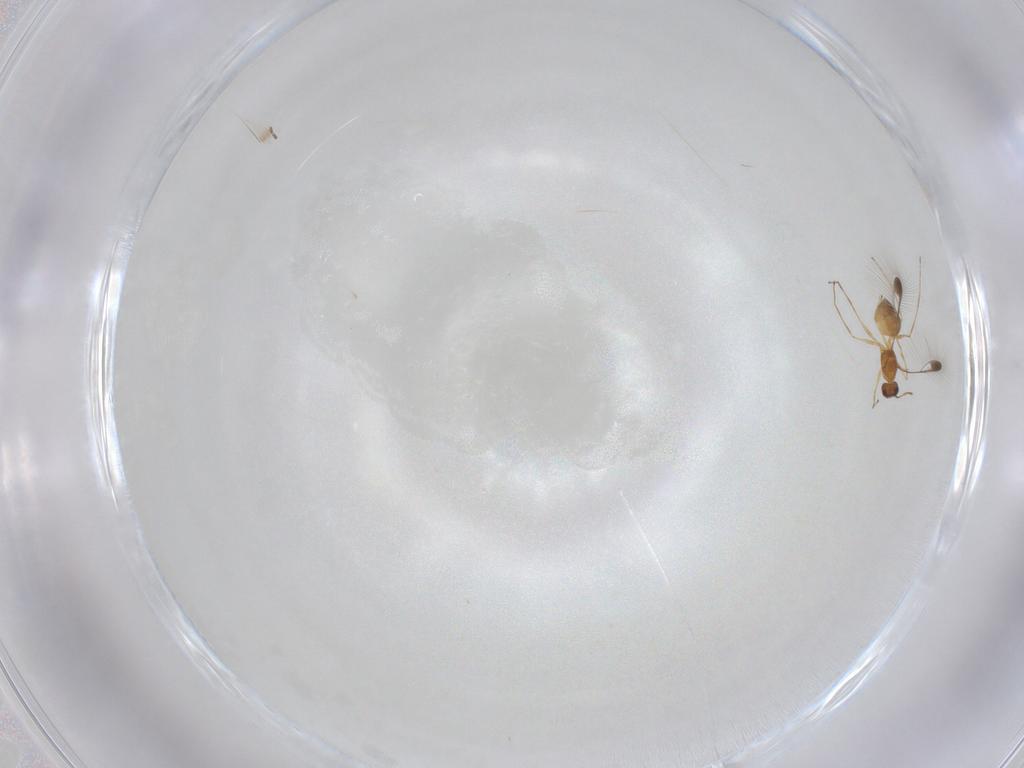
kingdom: Animalia
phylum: Arthropoda
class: Insecta
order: Hymenoptera
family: Mymaridae
